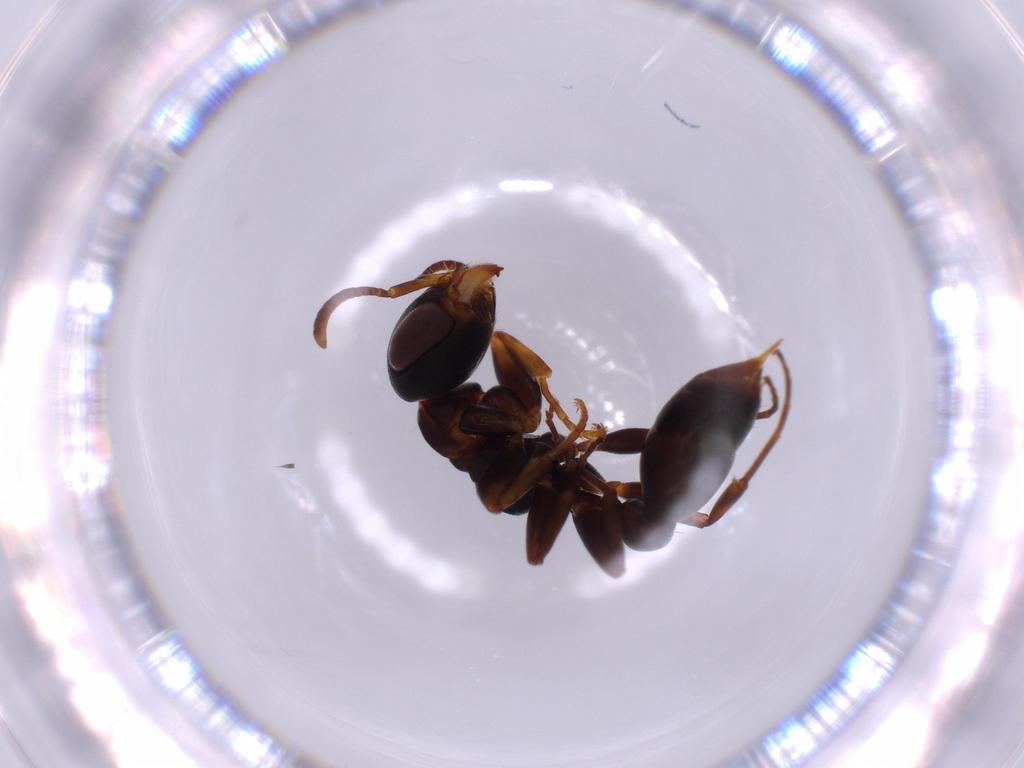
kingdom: Animalia
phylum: Arthropoda
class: Insecta
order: Hymenoptera
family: Formicidae
